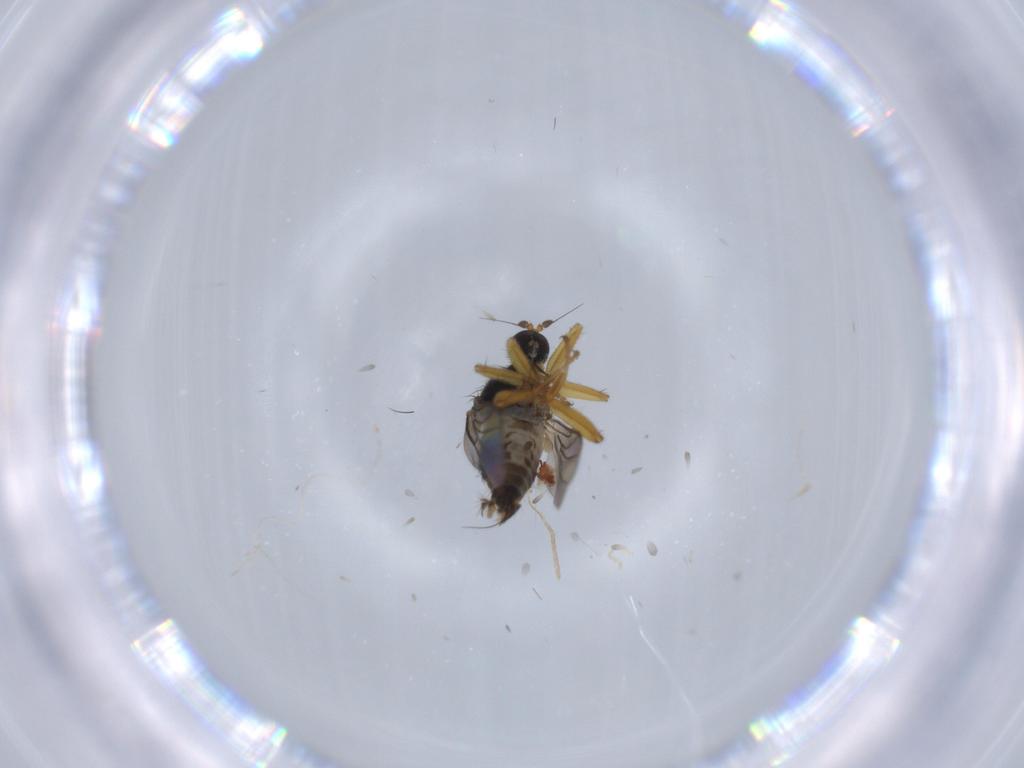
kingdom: Animalia
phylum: Arthropoda
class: Insecta
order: Diptera
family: Hybotidae
